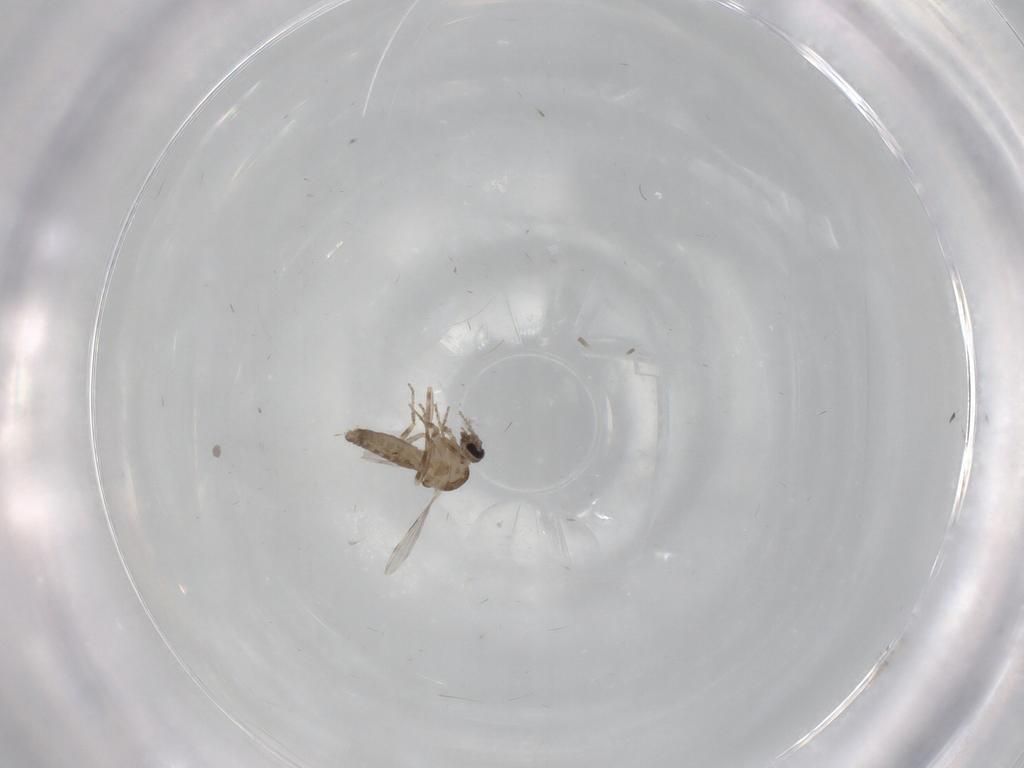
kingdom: Animalia
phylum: Arthropoda
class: Insecta
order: Diptera
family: Ceratopogonidae
